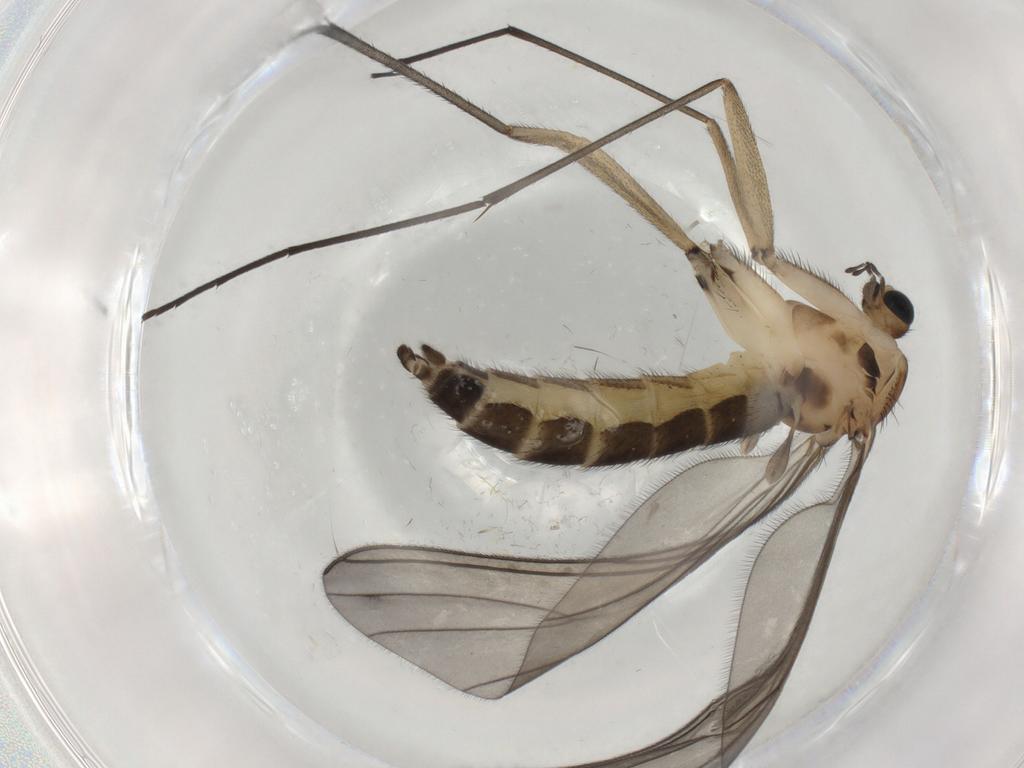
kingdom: Animalia
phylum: Arthropoda
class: Insecta
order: Diptera
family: Sciaridae
